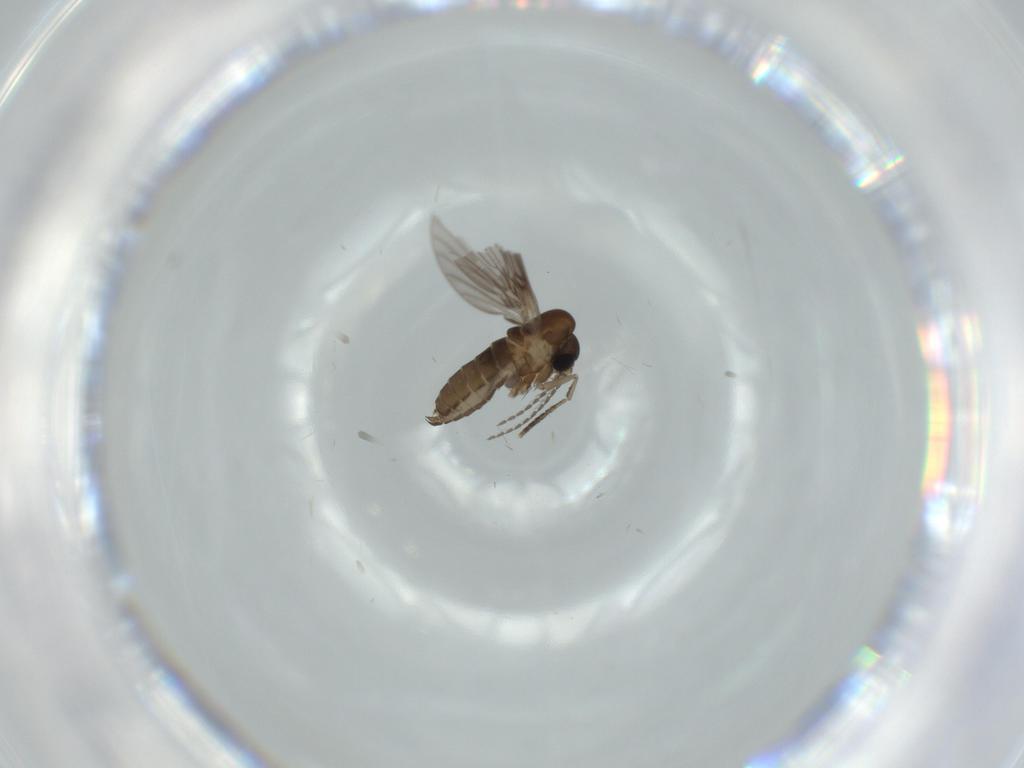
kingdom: Animalia
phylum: Arthropoda
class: Insecta
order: Diptera
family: Psychodidae
